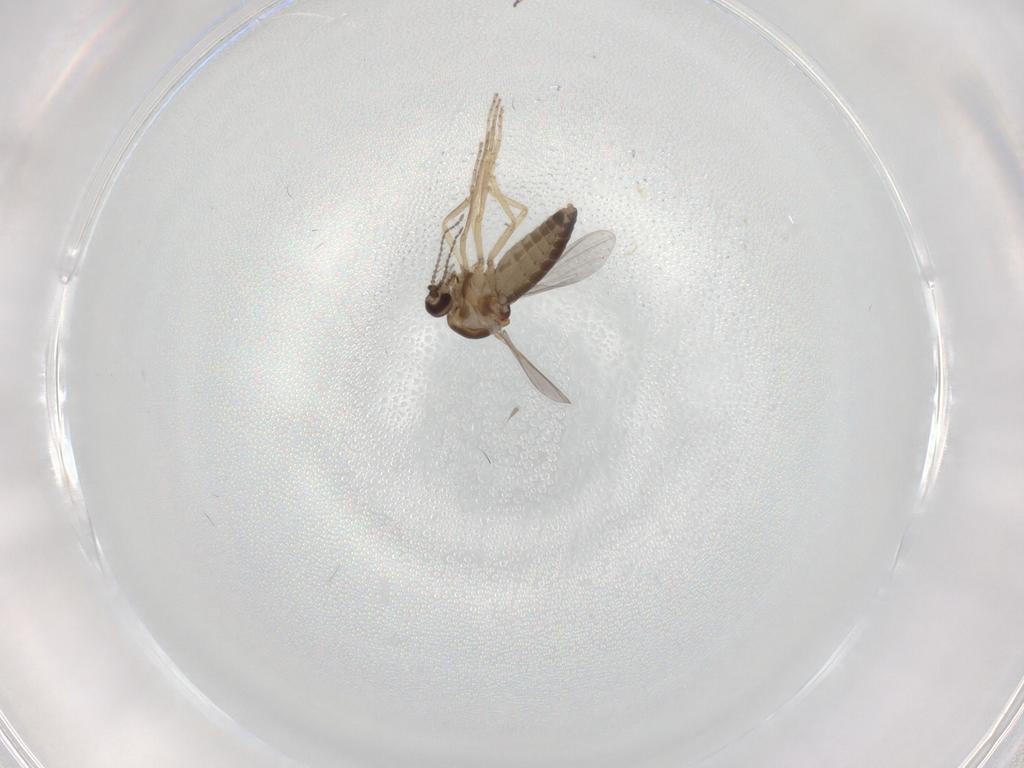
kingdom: Animalia
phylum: Arthropoda
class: Insecta
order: Diptera
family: Ceratopogonidae
